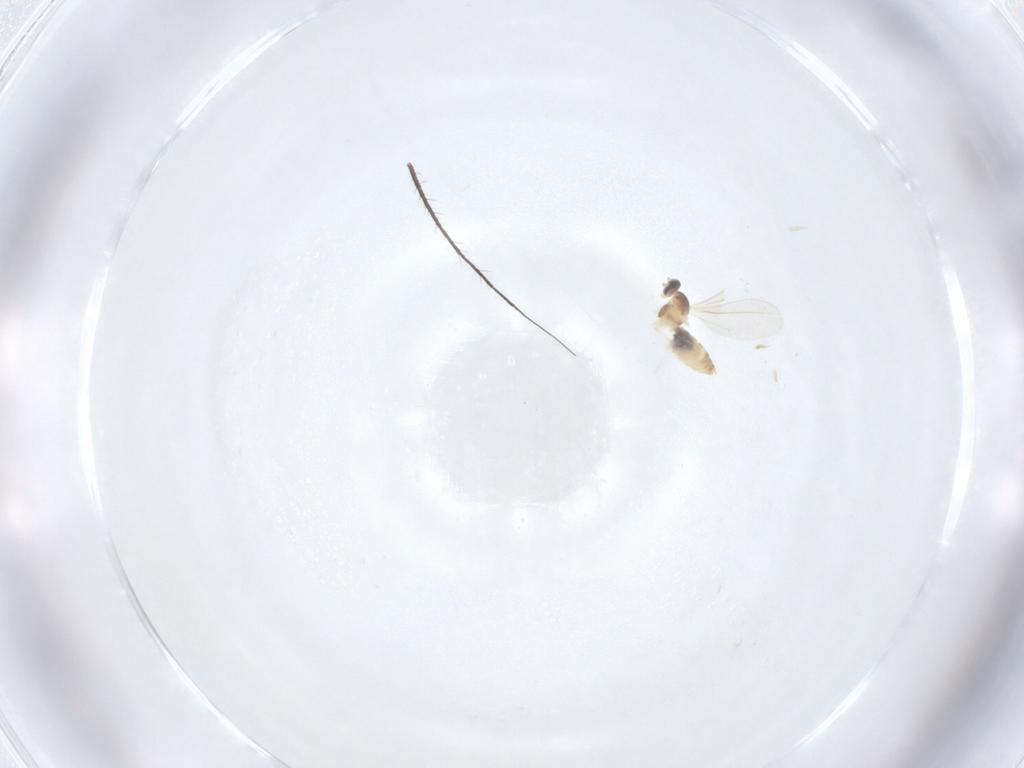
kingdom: Animalia
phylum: Arthropoda
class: Insecta
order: Diptera
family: Cecidomyiidae
